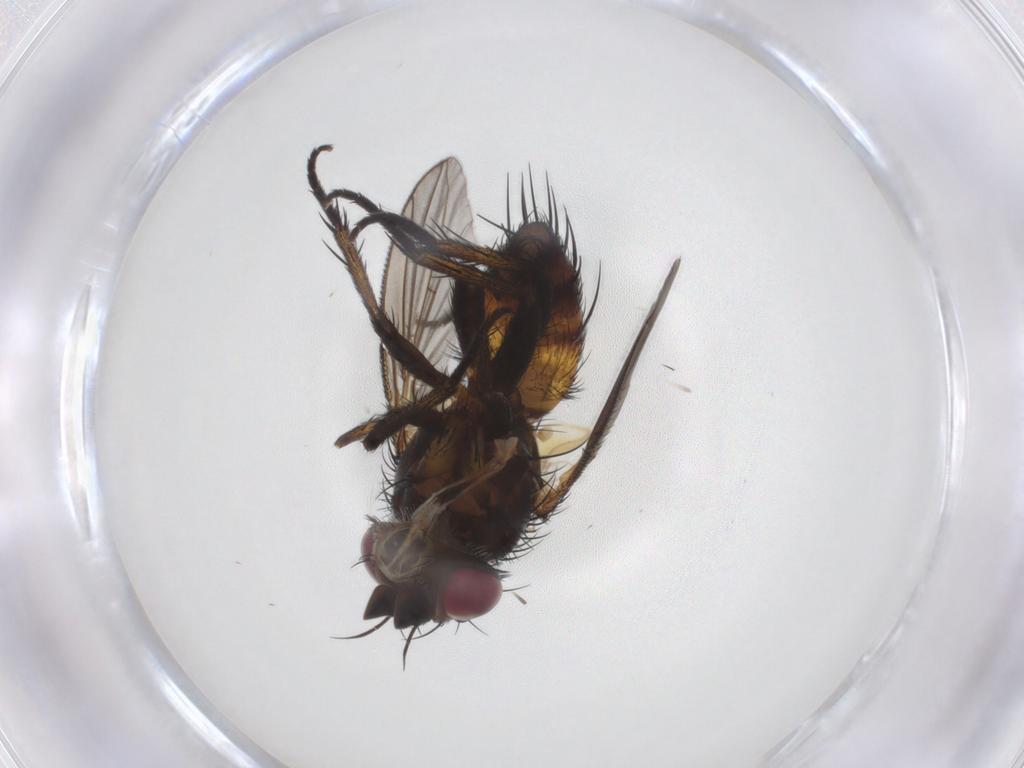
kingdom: Animalia
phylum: Arthropoda
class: Insecta
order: Diptera
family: Tachinidae
